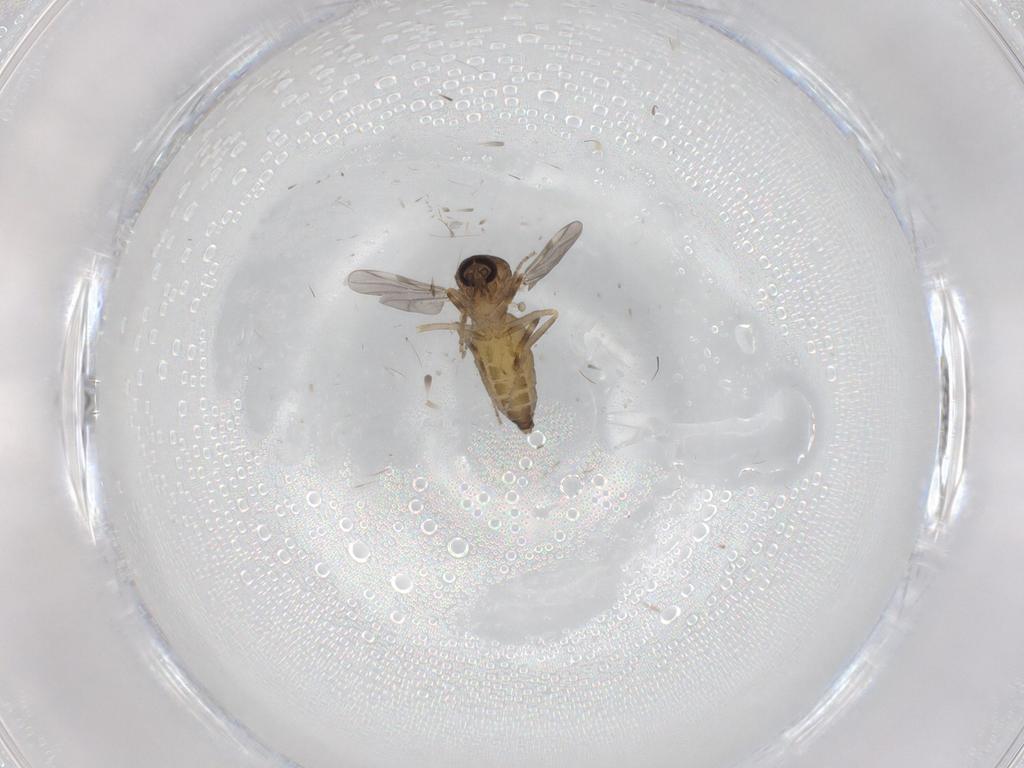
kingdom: Animalia
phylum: Arthropoda
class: Insecta
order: Diptera
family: Ceratopogonidae
